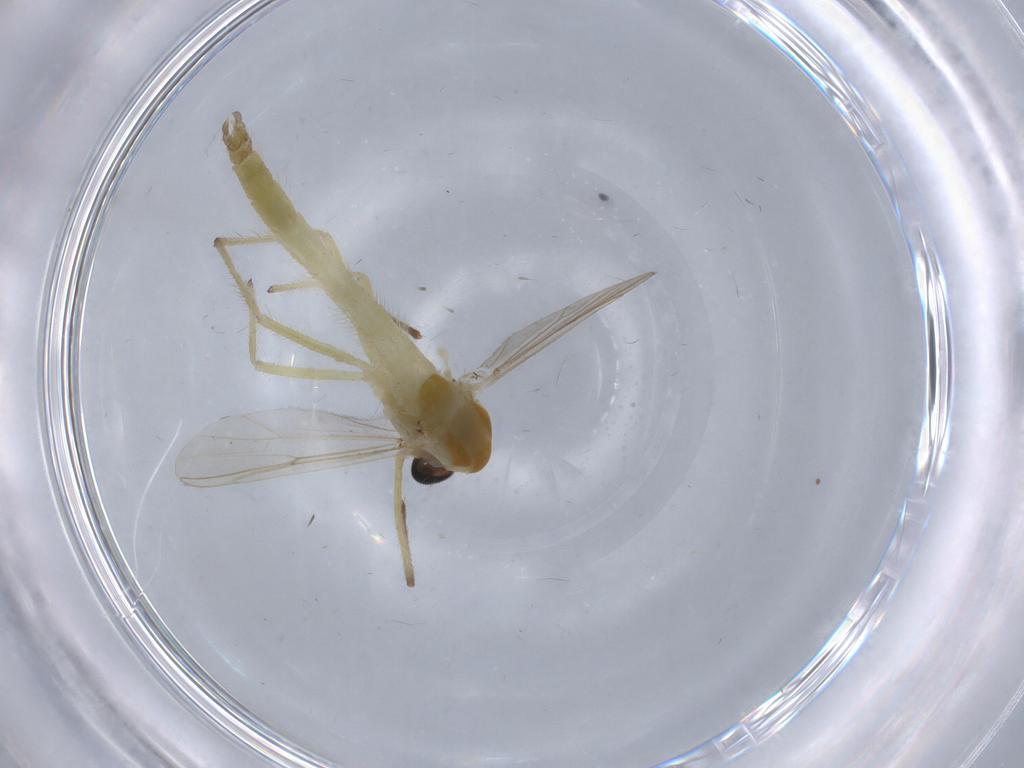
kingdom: Animalia
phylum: Arthropoda
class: Insecta
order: Diptera
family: Chironomidae
